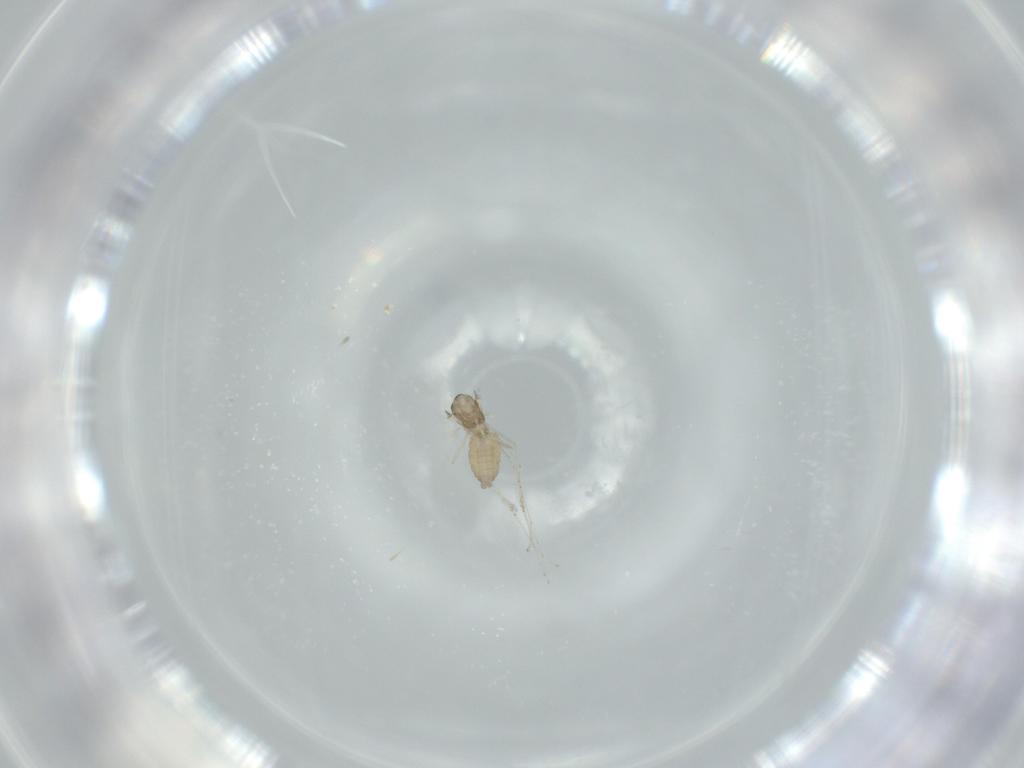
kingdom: Animalia
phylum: Arthropoda
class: Insecta
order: Diptera
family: Cecidomyiidae
